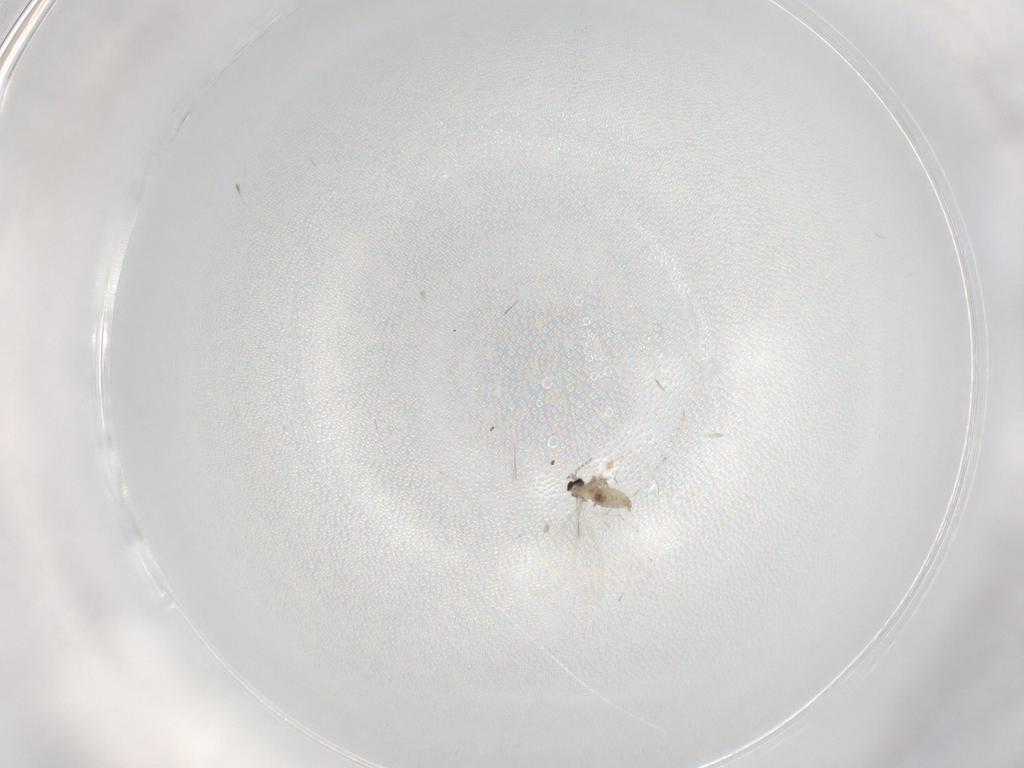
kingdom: Animalia
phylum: Arthropoda
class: Insecta
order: Diptera
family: Cecidomyiidae
